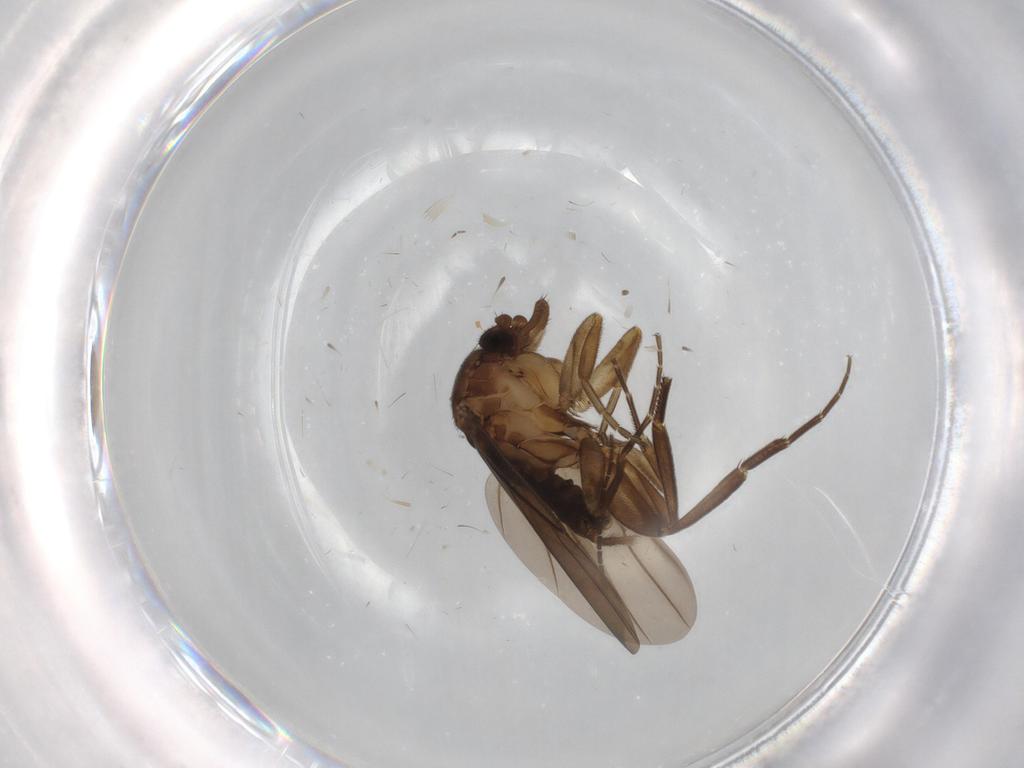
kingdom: Animalia
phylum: Arthropoda
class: Insecta
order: Diptera
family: Phoridae
